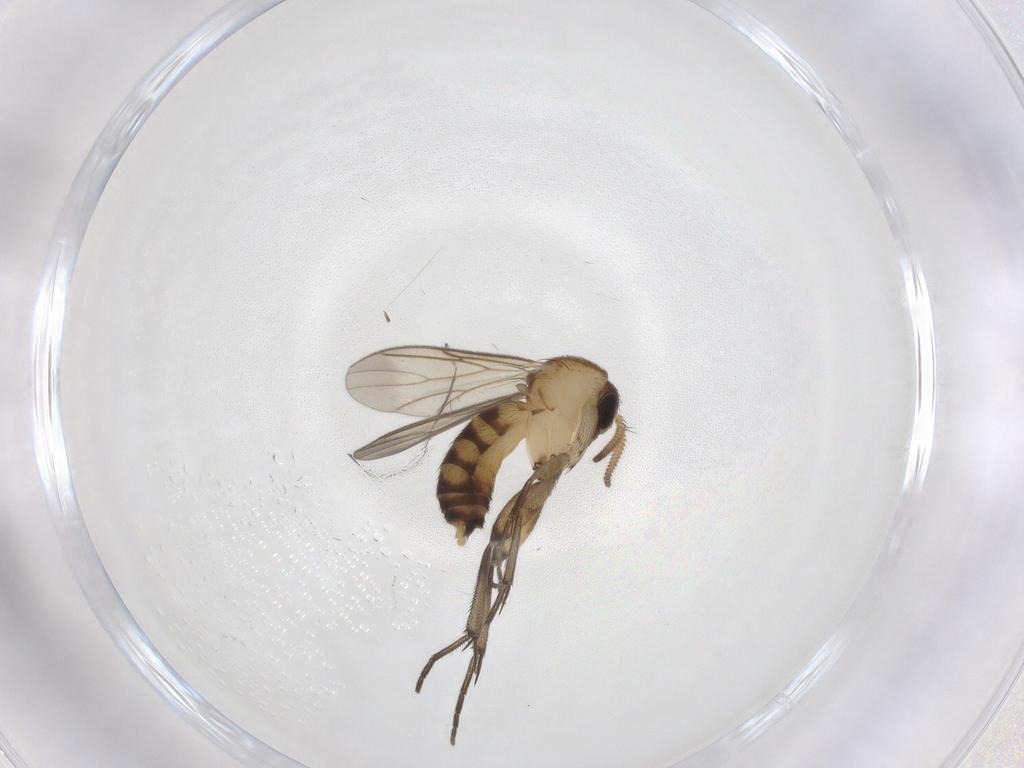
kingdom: Animalia
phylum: Arthropoda
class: Insecta
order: Diptera
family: Mycetophilidae
